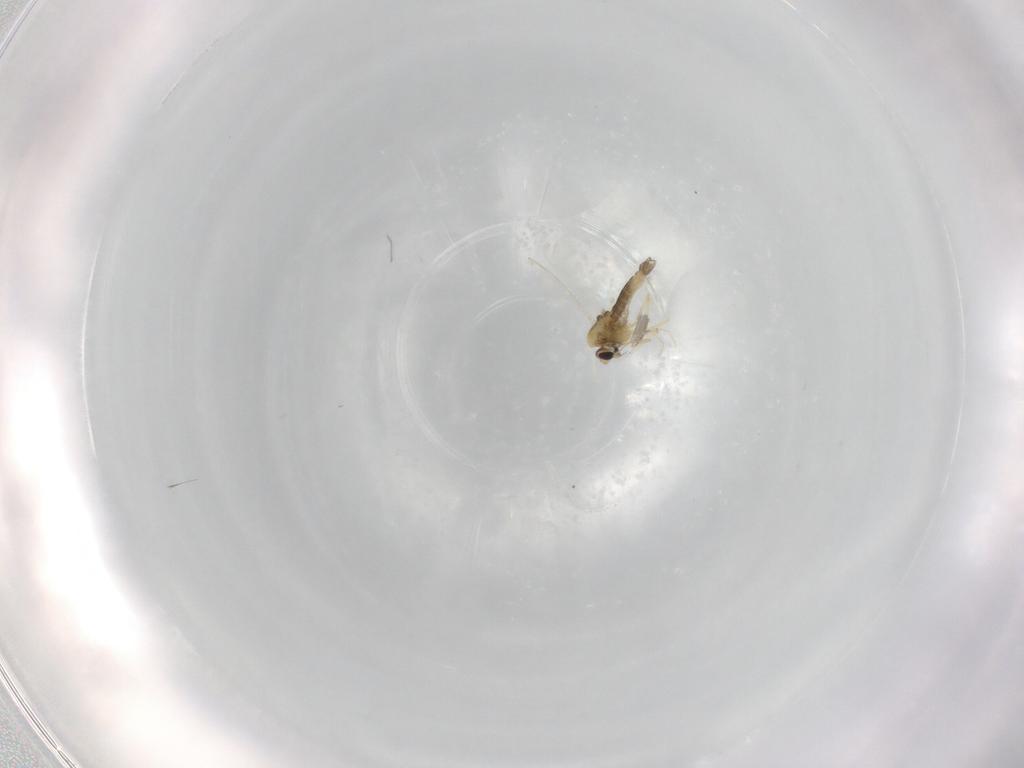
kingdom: Animalia
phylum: Arthropoda
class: Insecta
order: Diptera
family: Chironomidae
